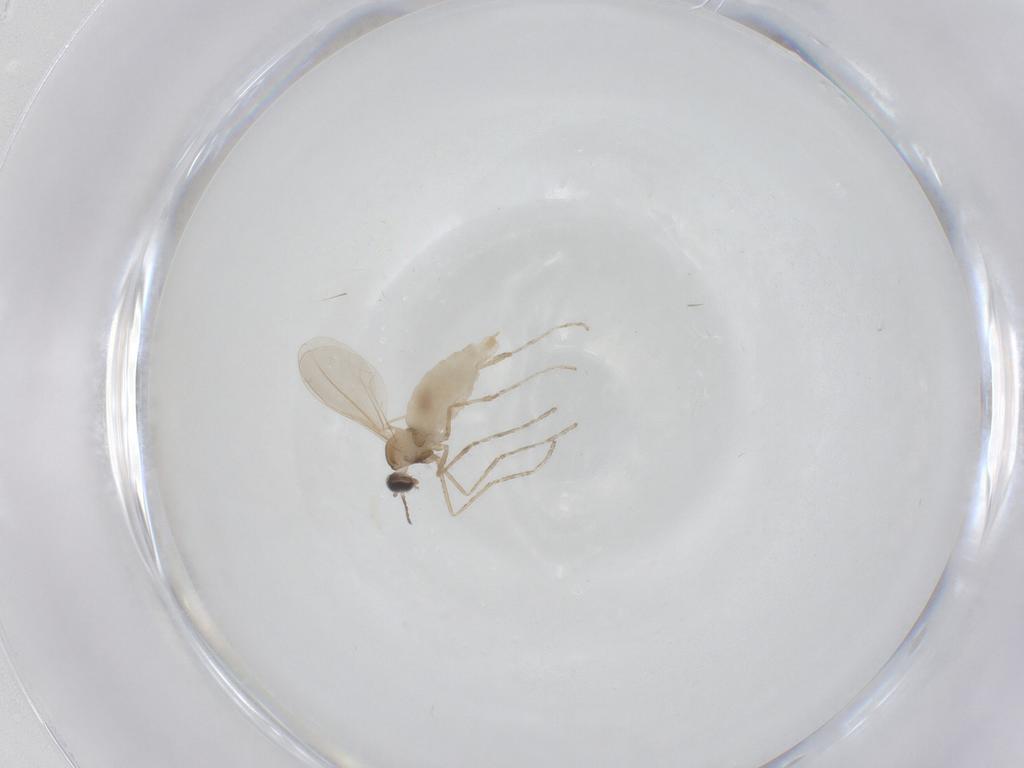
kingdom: Animalia
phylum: Arthropoda
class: Insecta
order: Diptera
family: Cecidomyiidae
